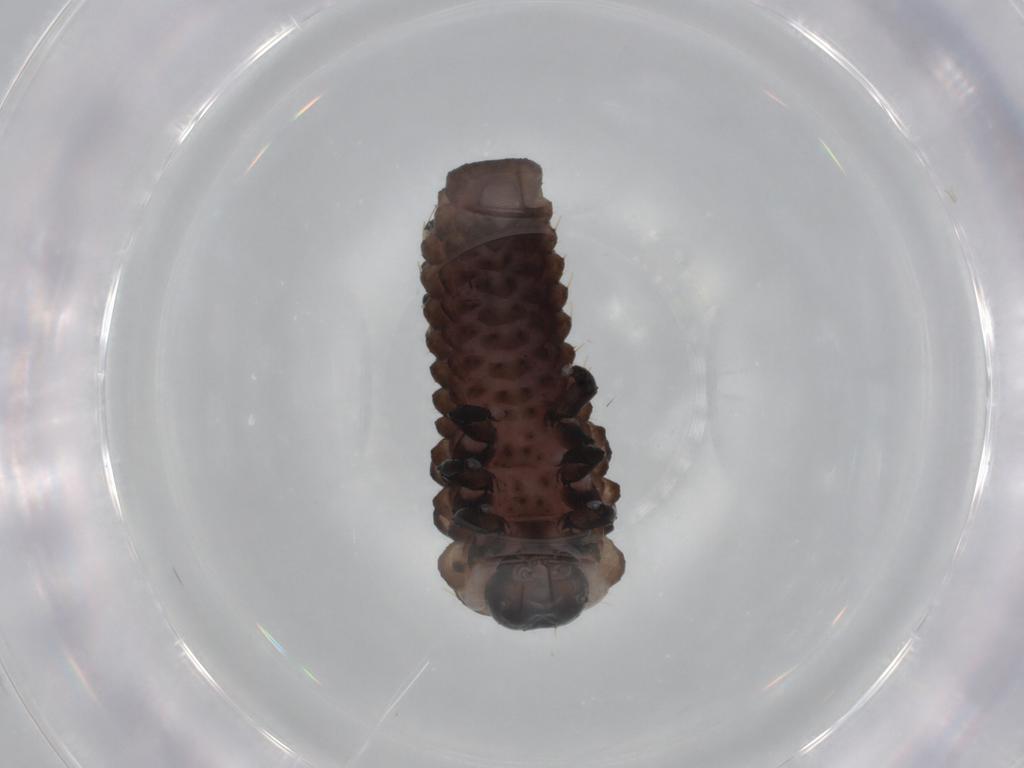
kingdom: Animalia
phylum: Arthropoda
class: Insecta
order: Coleoptera
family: Chrysomelidae
